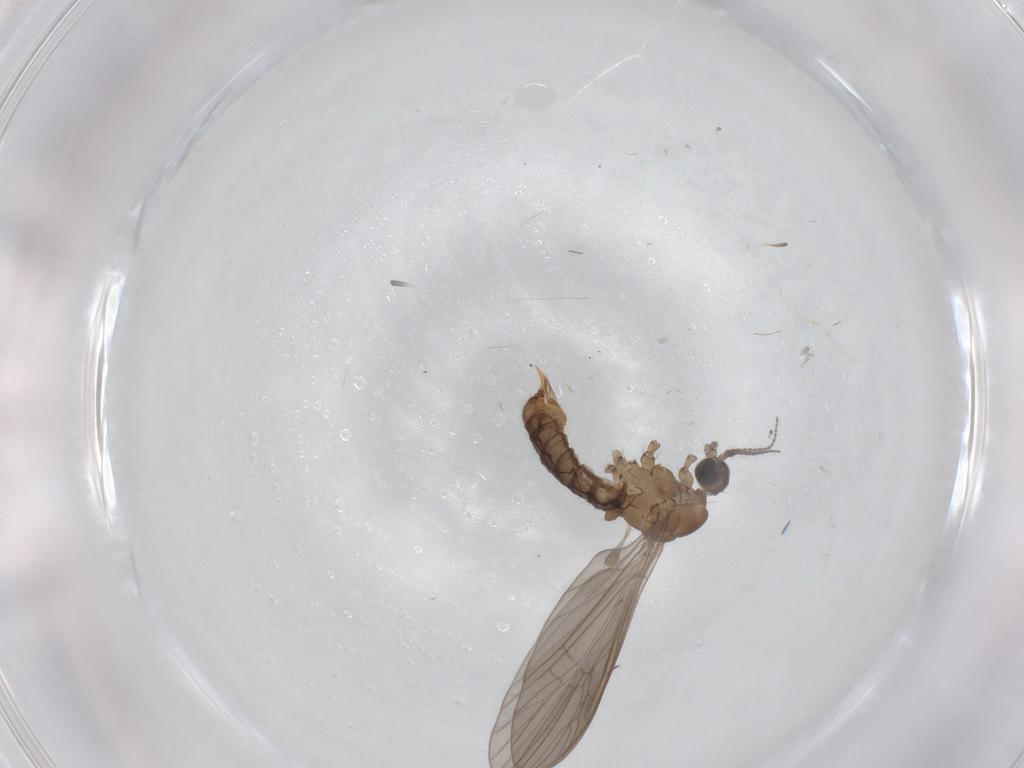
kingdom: Animalia
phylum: Arthropoda
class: Insecta
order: Diptera
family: Limoniidae
